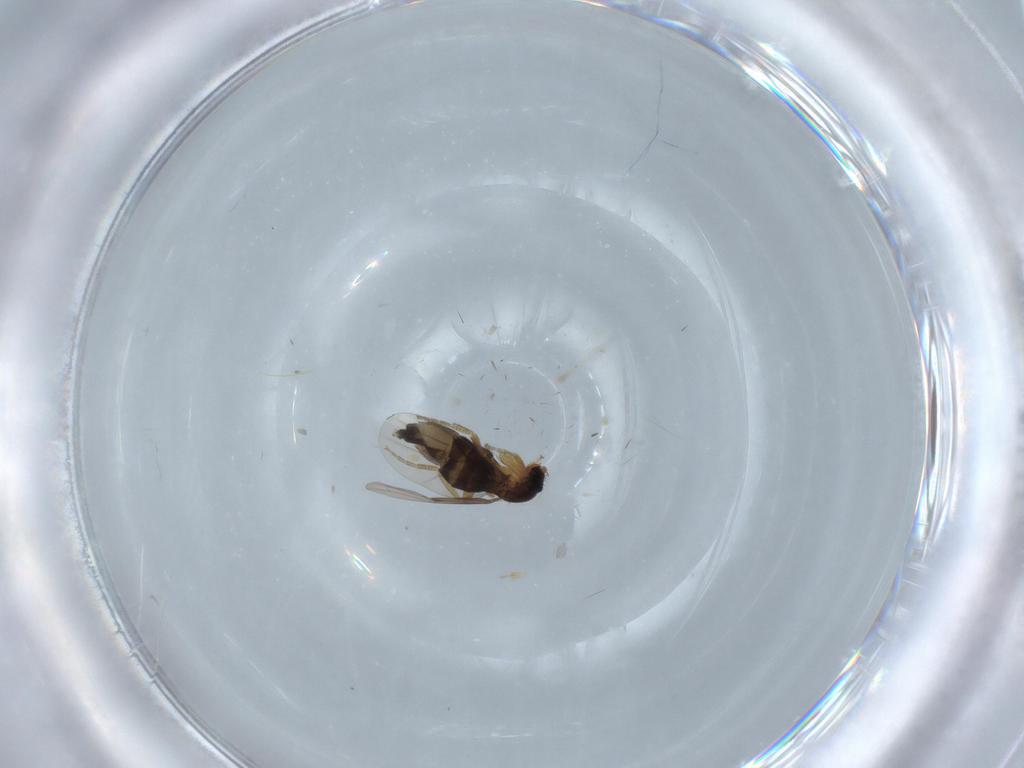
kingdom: Animalia
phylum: Arthropoda
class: Insecta
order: Diptera
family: Phoridae
